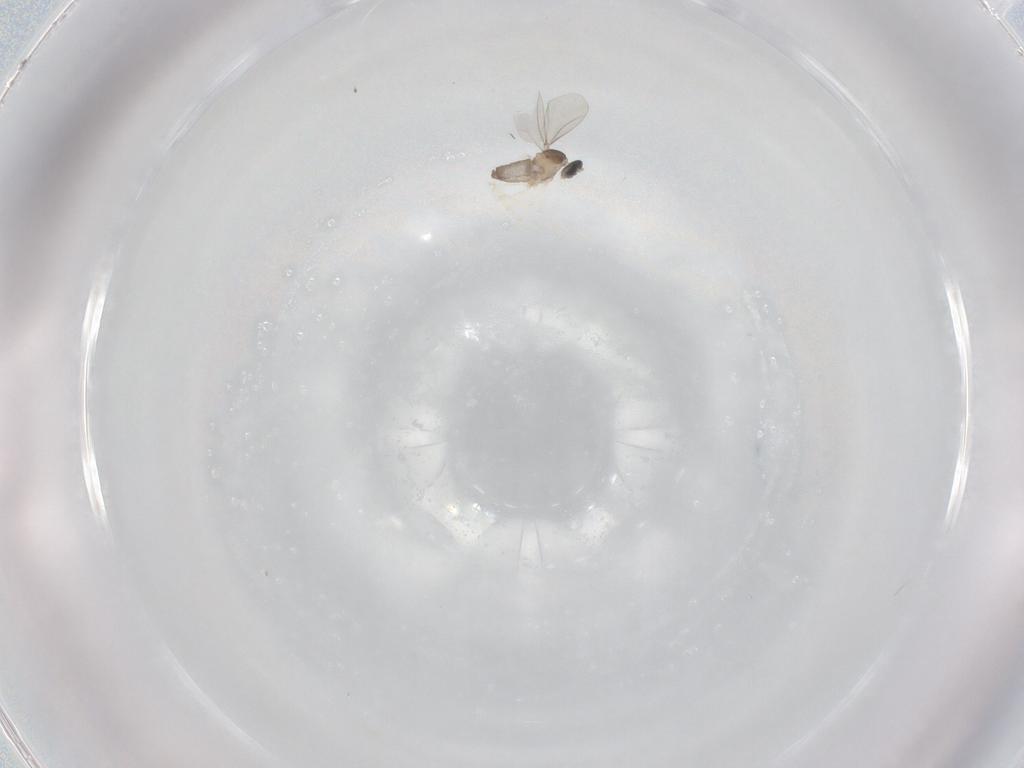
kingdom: Animalia
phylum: Arthropoda
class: Insecta
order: Diptera
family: Cecidomyiidae
